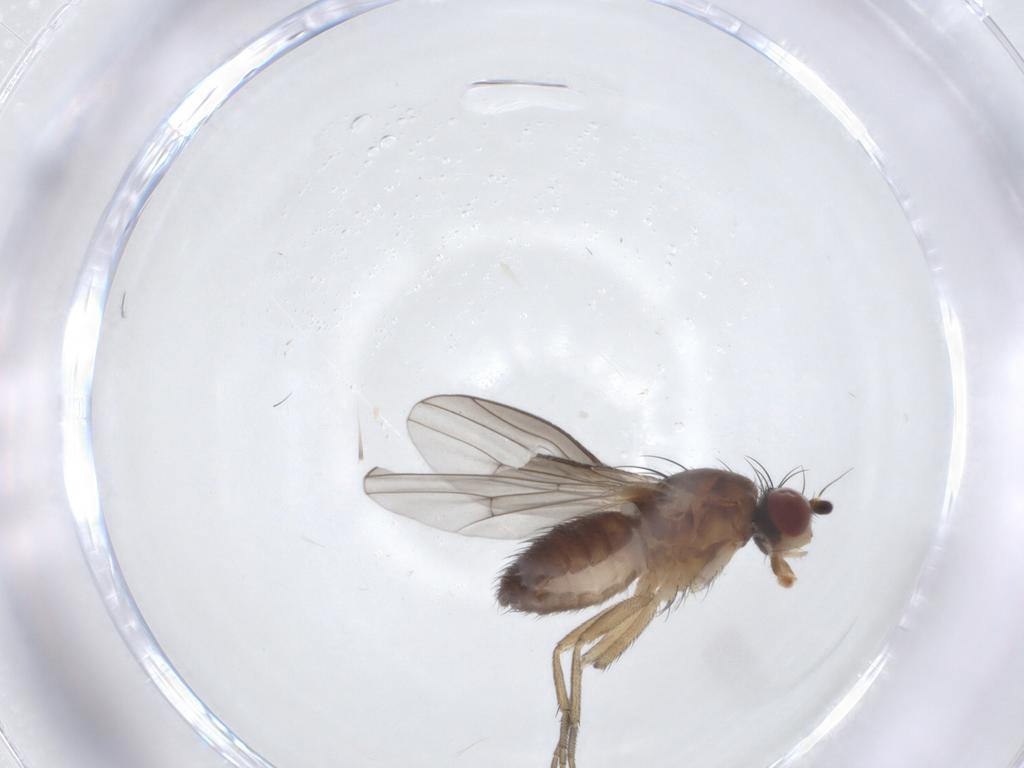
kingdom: Animalia
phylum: Arthropoda
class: Insecta
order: Diptera
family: Heleomyzidae
